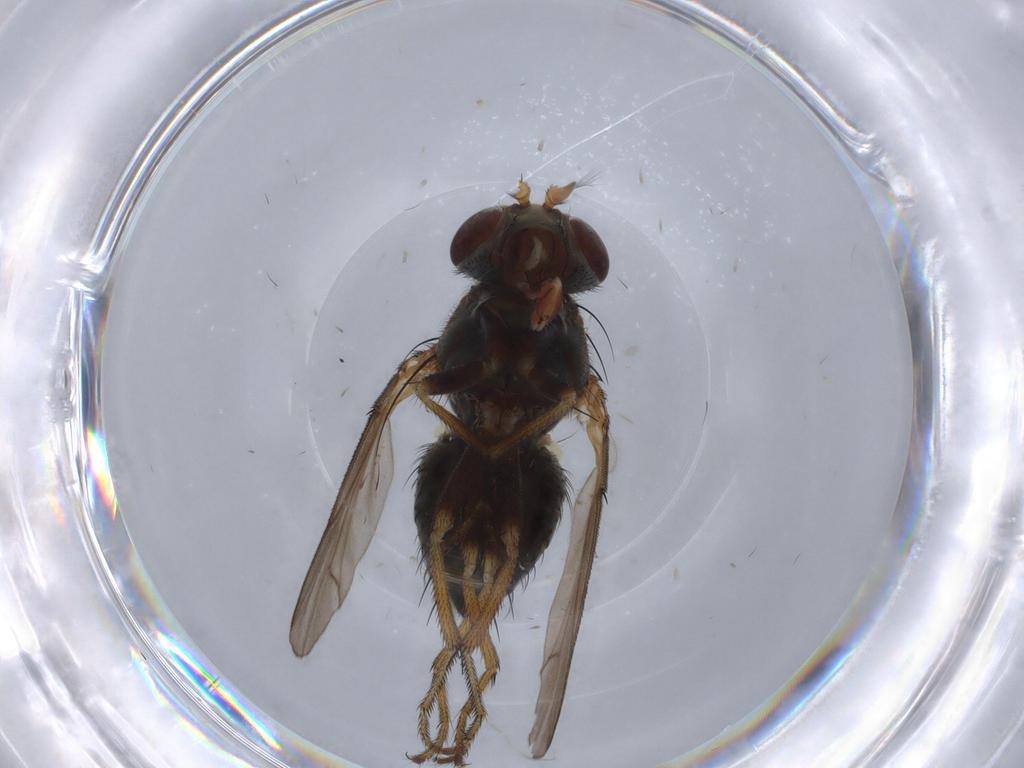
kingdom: Animalia
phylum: Arthropoda
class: Insecta
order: Diptera
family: Ephydridae
